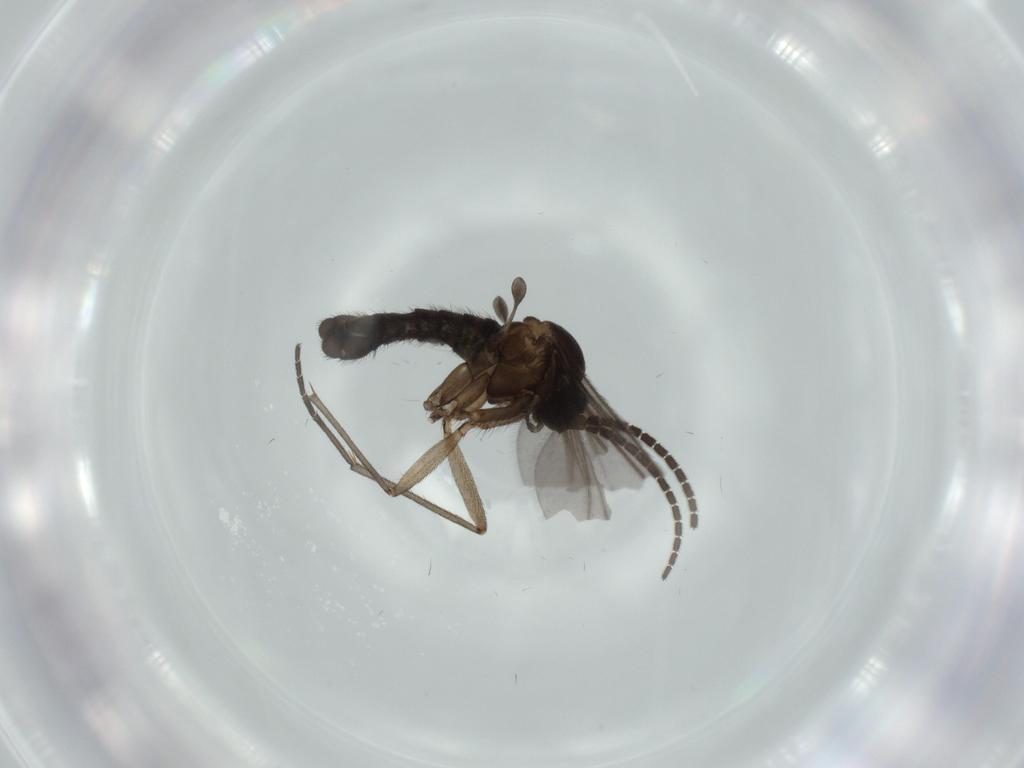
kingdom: Animalia
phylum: Arthropoda
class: Insecta
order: Diptera
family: Sciaridae
